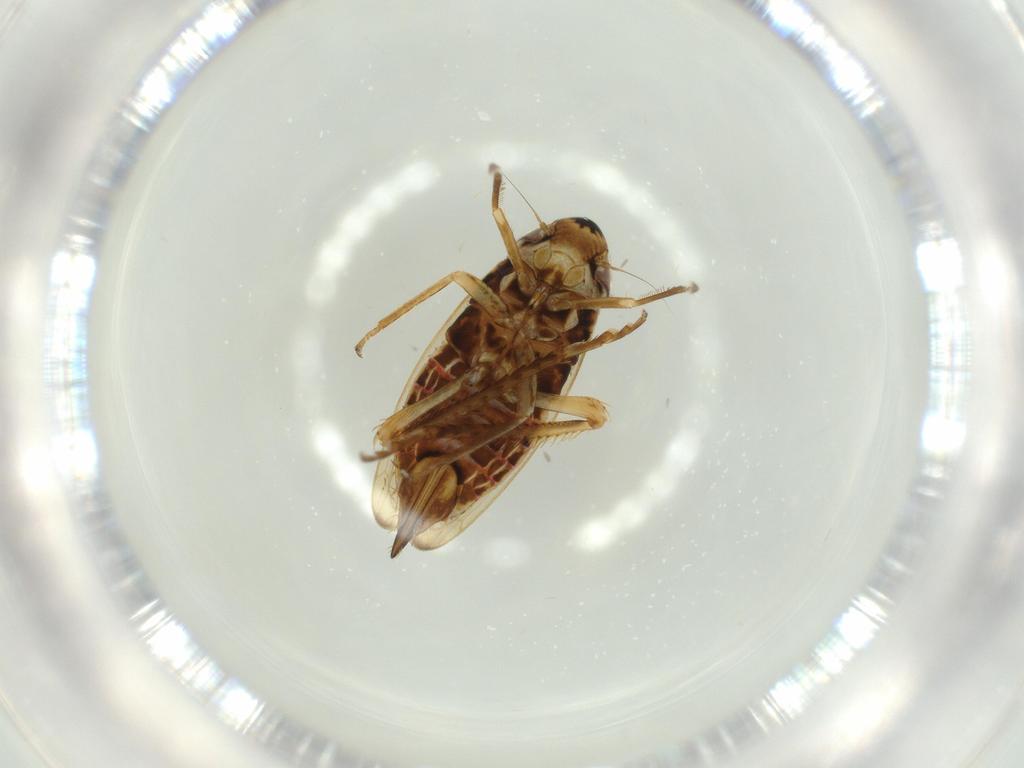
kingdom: Animalia
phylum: Arthropoda
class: Insecta
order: Hemiptera
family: Cicadellidae
